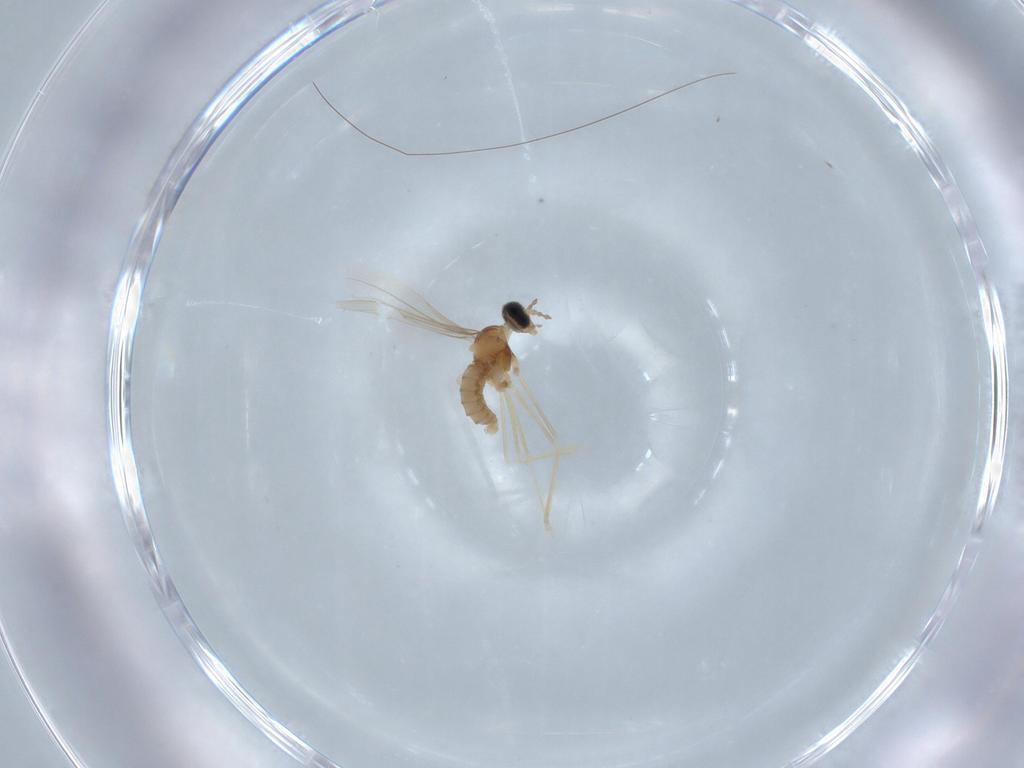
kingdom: Animalia
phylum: Arthropoda
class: Insecta
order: Diptera
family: Cecidomyiidae
